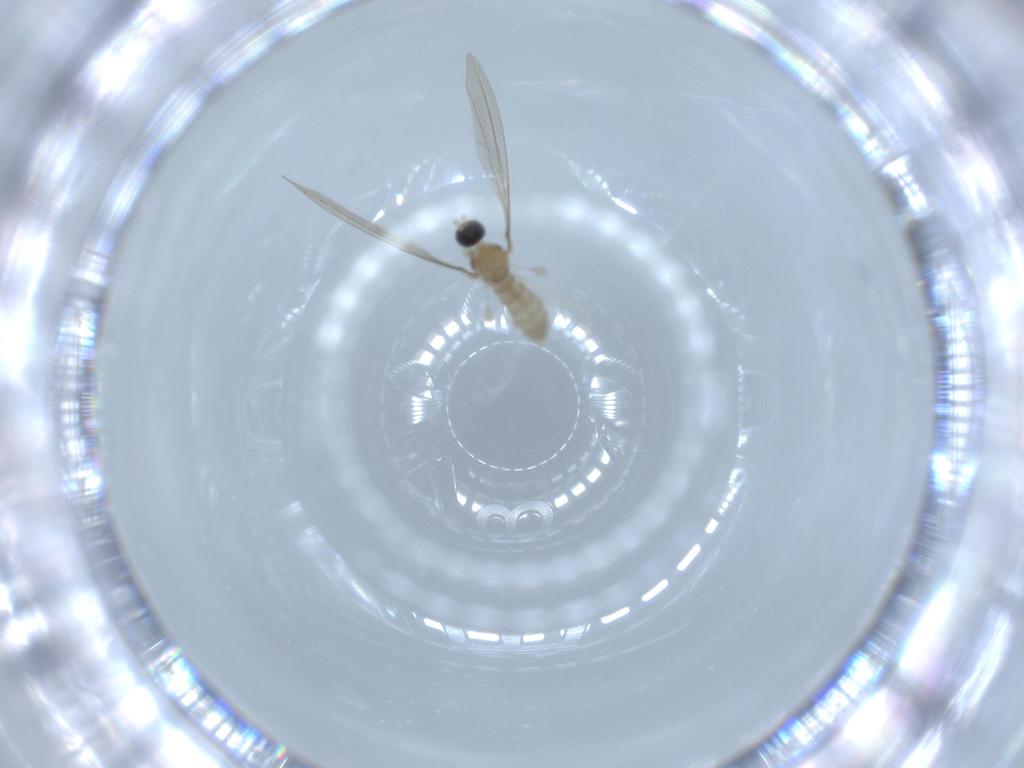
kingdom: Animalia
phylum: Arthropoda
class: Insecta
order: Diptera
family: Cecidomyiidae
